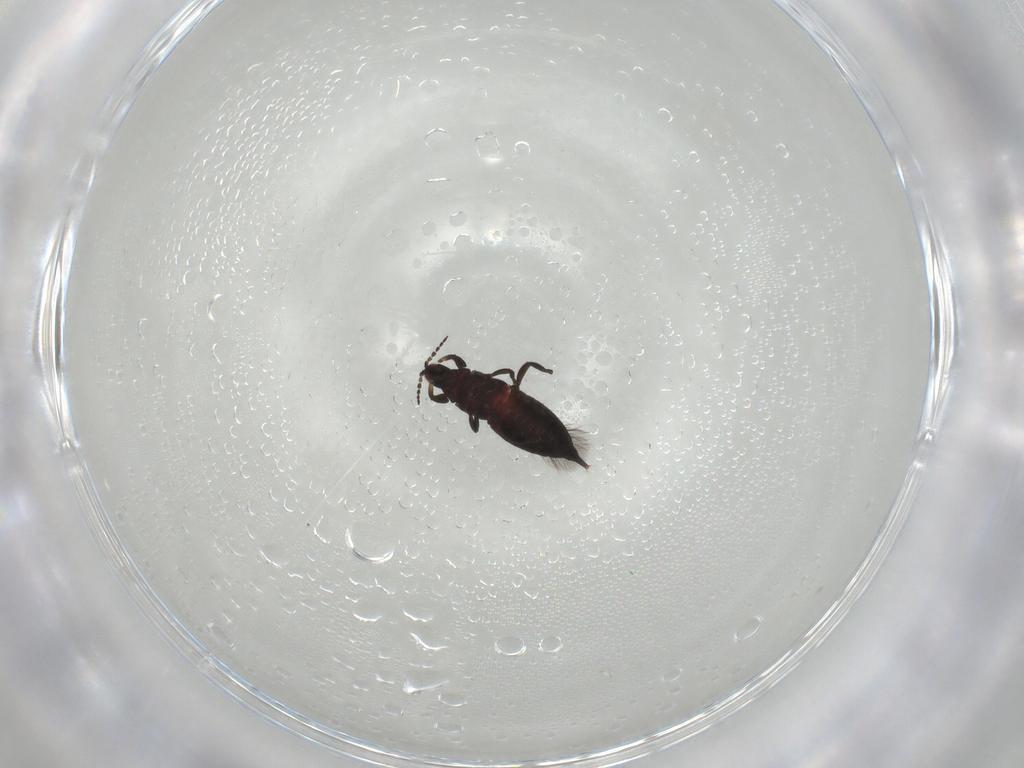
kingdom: Animalia
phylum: Arthropoda
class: Insecta
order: Thysanoptera
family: Phlaeothripidae
